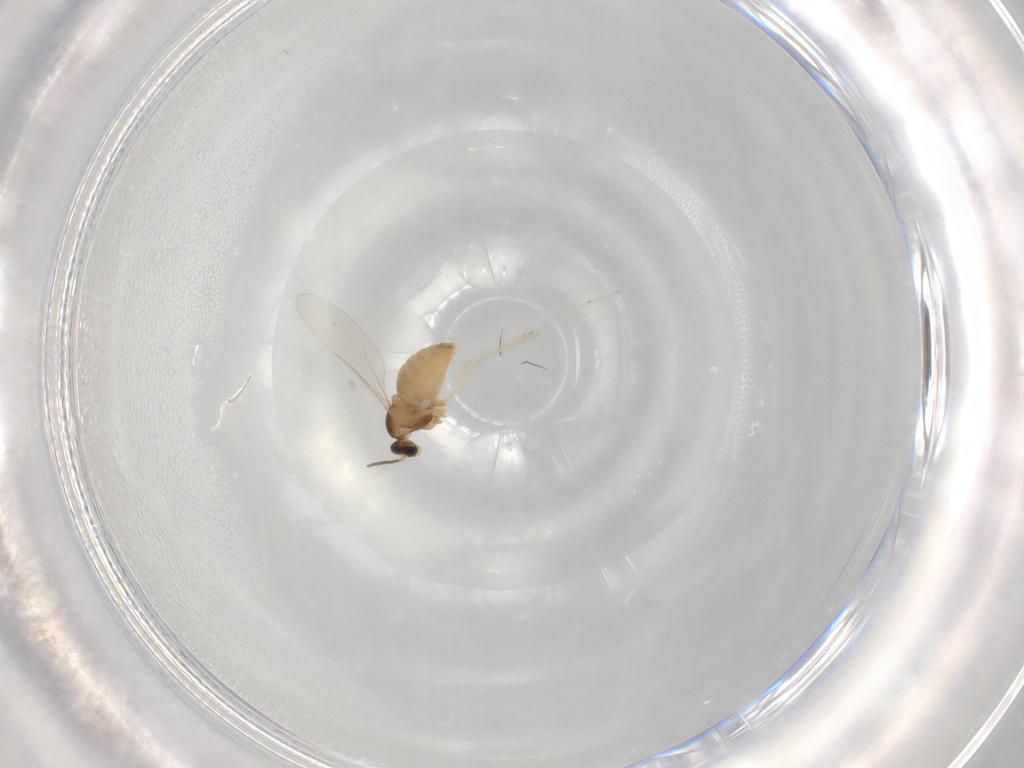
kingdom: Animalia
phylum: Arthropoda
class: Insecta
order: Diptera
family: Cecidomyiidae
